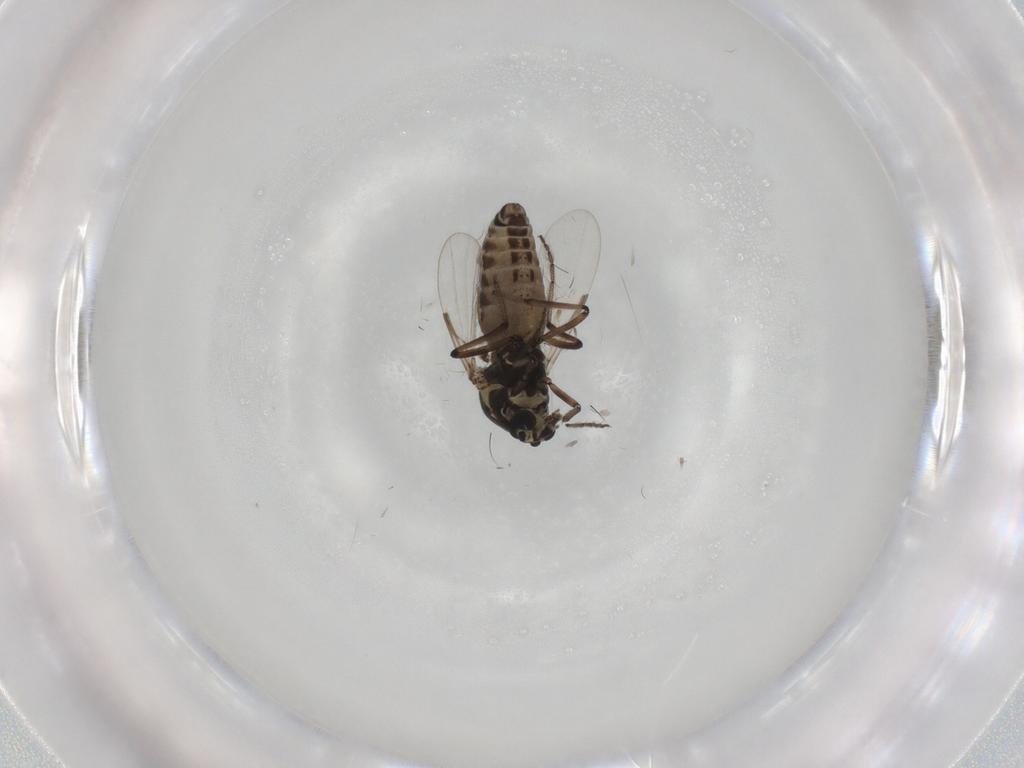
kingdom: Animalia
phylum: Arthropoda
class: Insecta
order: Diptera
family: Ceratopogonidae
